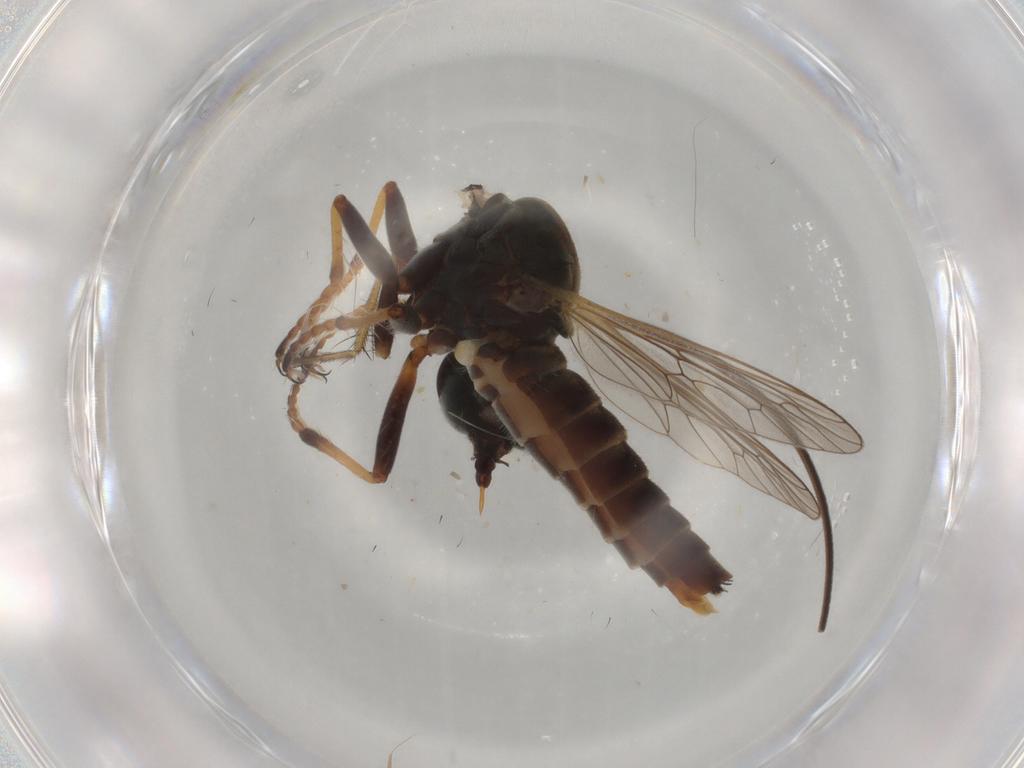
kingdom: Animalia
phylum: Arthropoda
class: Insecta
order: Diptera
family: Asilidae
